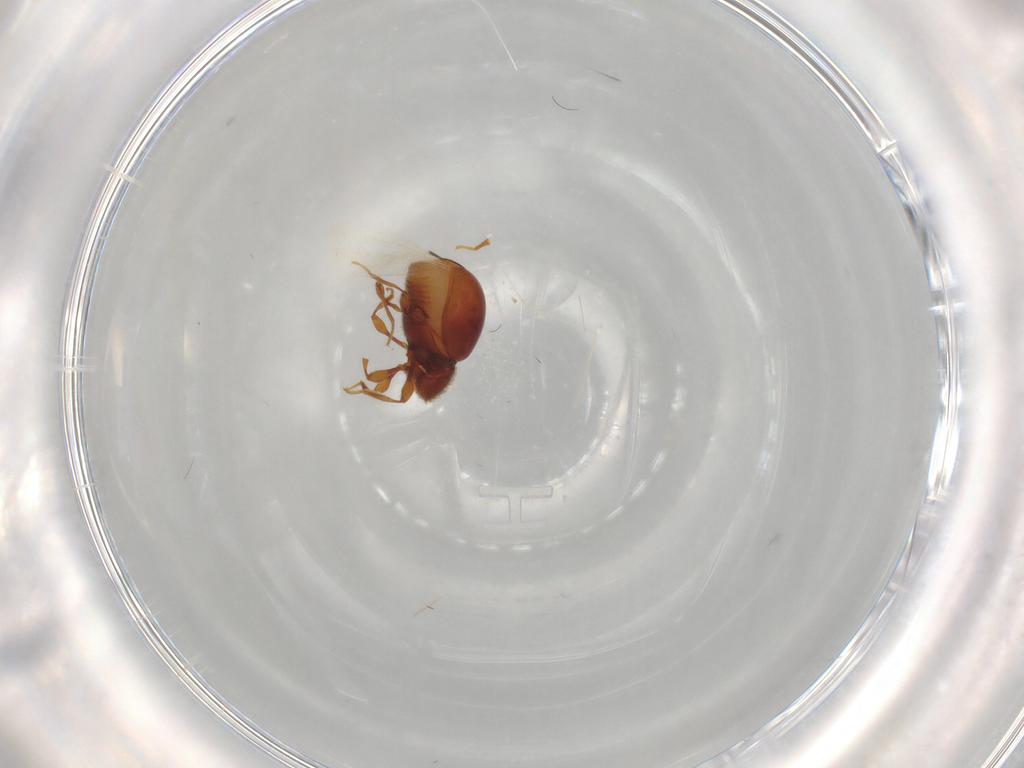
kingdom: Animalia
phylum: Arthropoda
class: Insecta
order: Coleoptera
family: Staphylinidae
